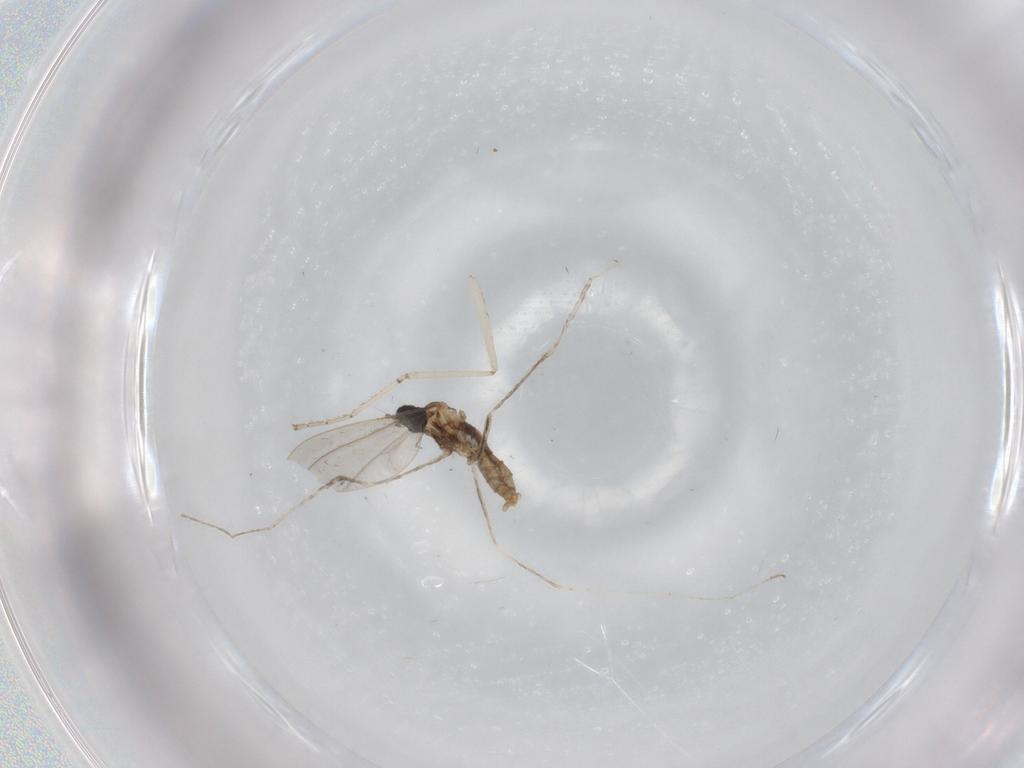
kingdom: Animalia
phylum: Arthropoda
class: Insecta
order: Diptera
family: Cecidomyiidae
